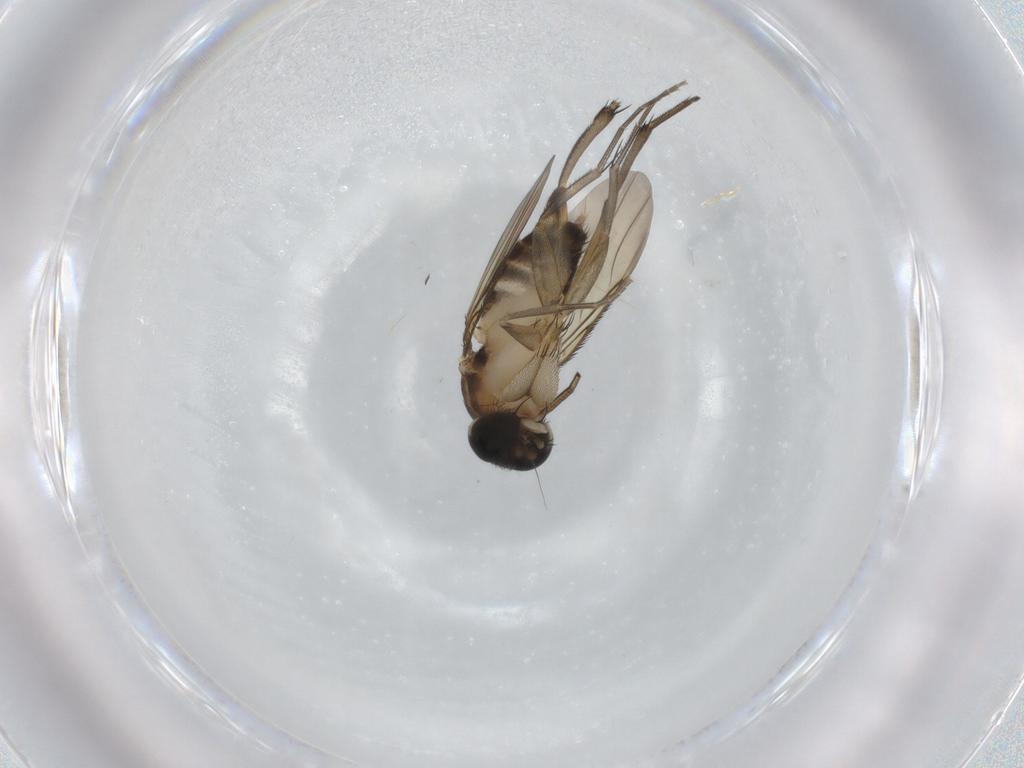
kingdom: Animalia
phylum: Arthropoda
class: Insecta
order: Diptera
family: Phoridae
